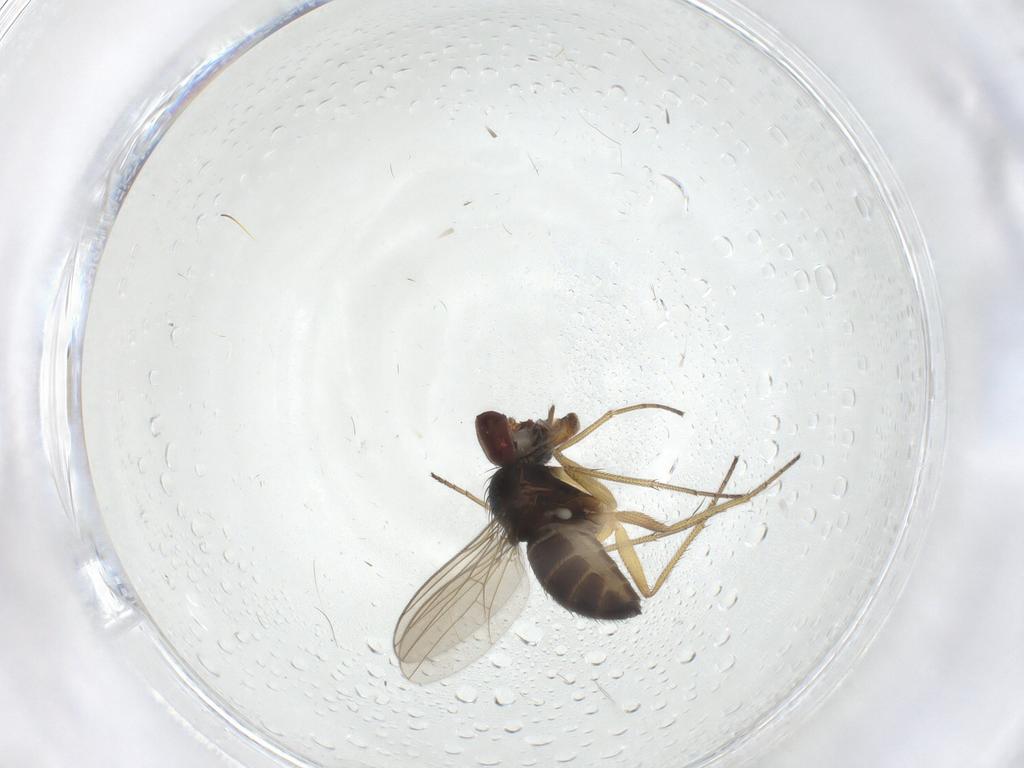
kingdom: Animalia
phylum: Arthropoda
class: Insecta
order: Diptera
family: Dolichopodidae
